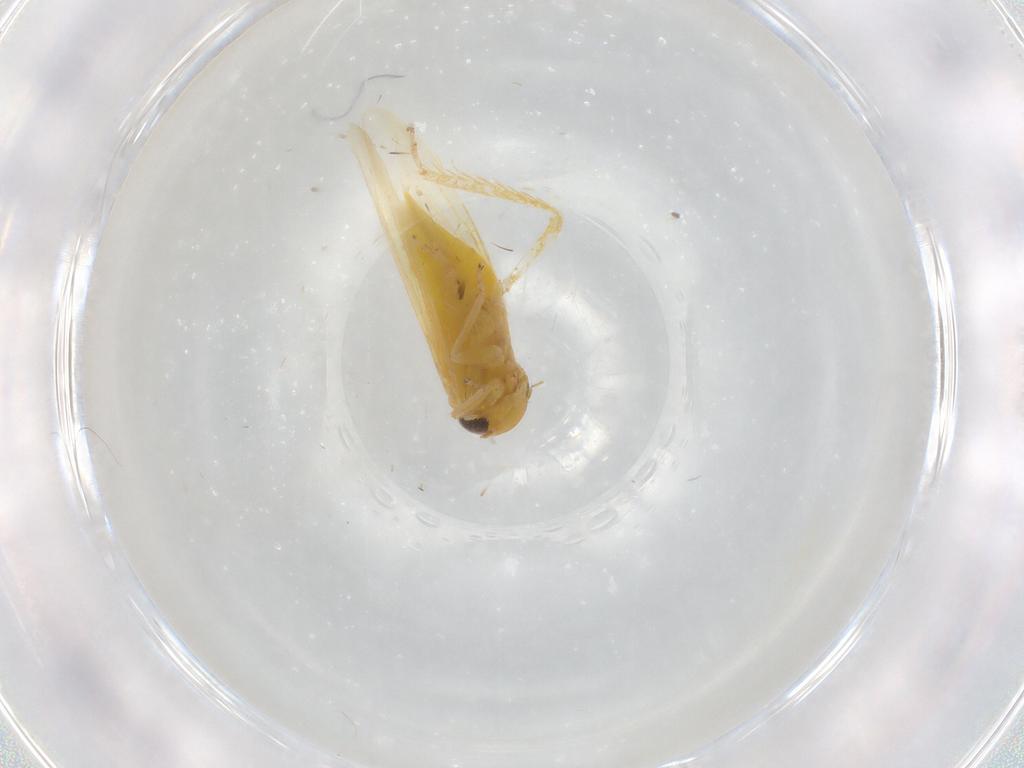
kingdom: Animalia
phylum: Arthropoda
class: Insecta
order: Hemiptera
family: Cicadellidae
